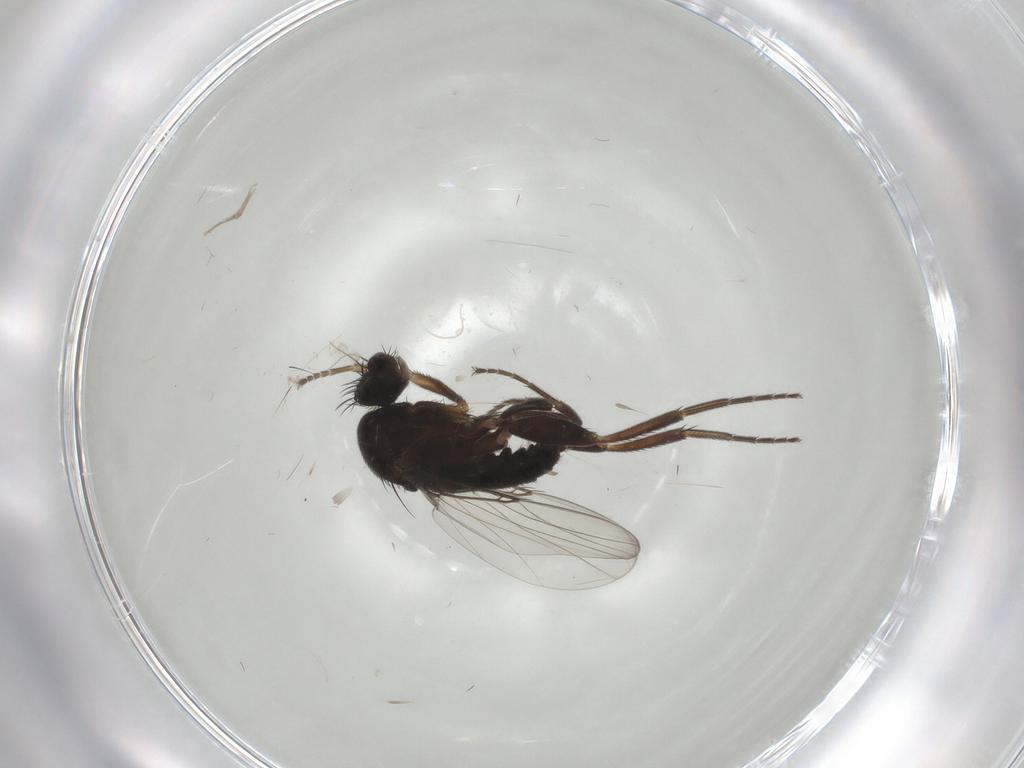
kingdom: Animalia
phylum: Arthropoda
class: Insecta
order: Diptera
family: Phoridae
